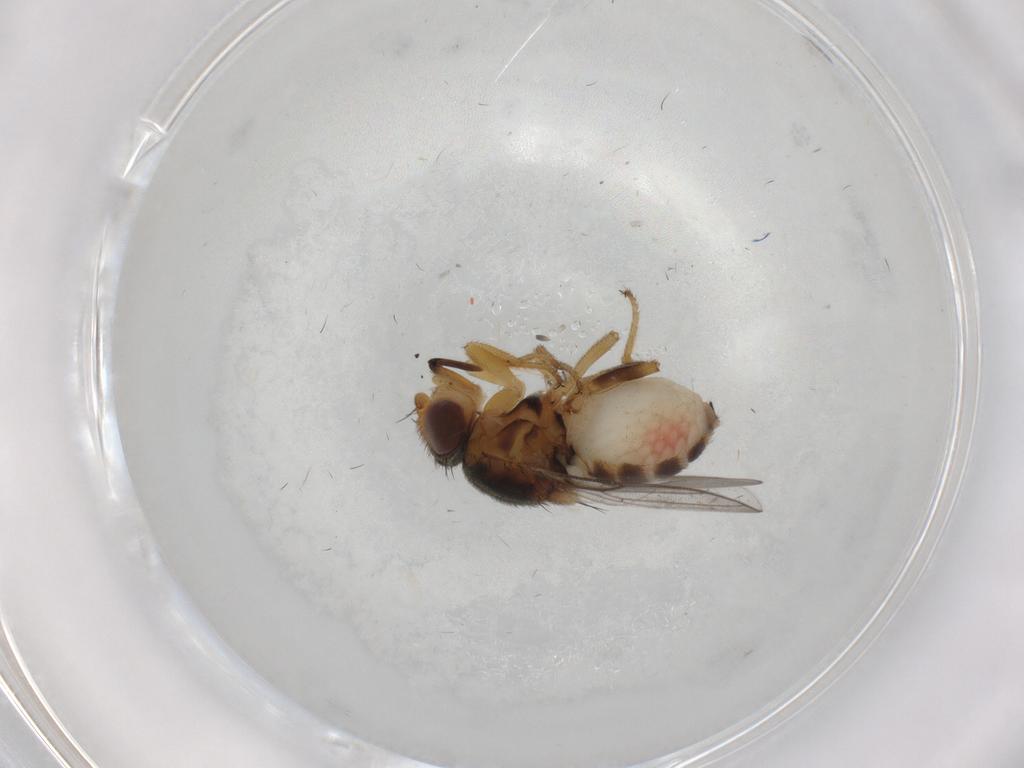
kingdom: Animalia
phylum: Arthropoda
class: Insecta
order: Diptera
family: Chloropidae
